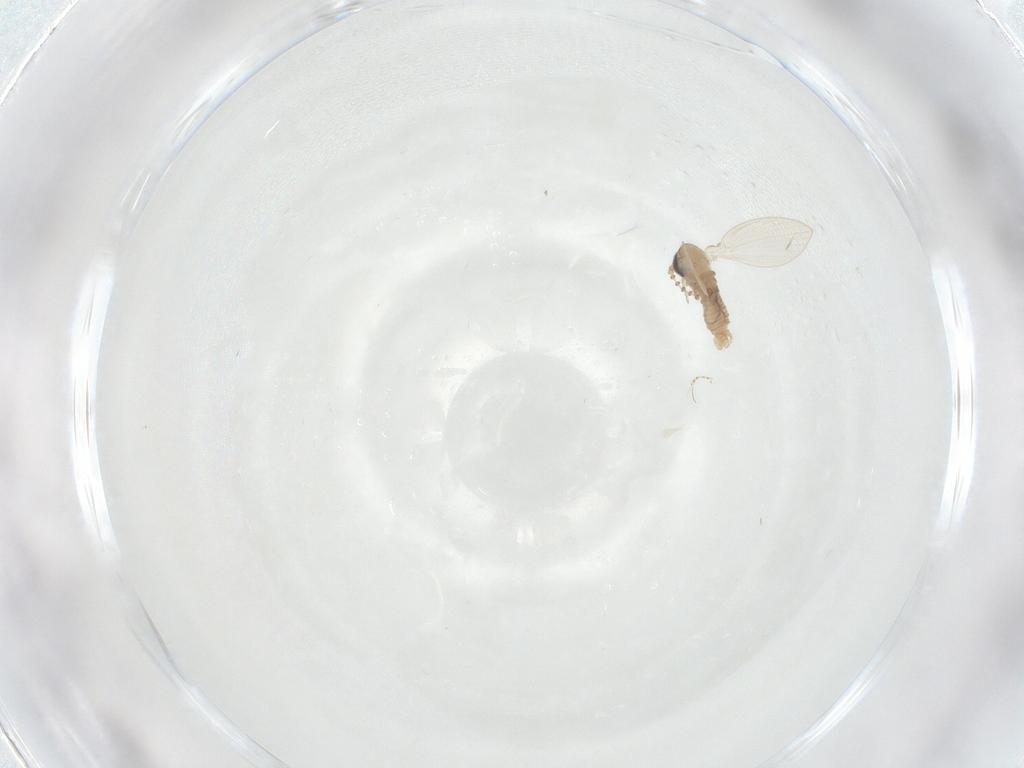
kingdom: Animalia
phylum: Arthropoda
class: Insecta
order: Diptera
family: Psychodidae
